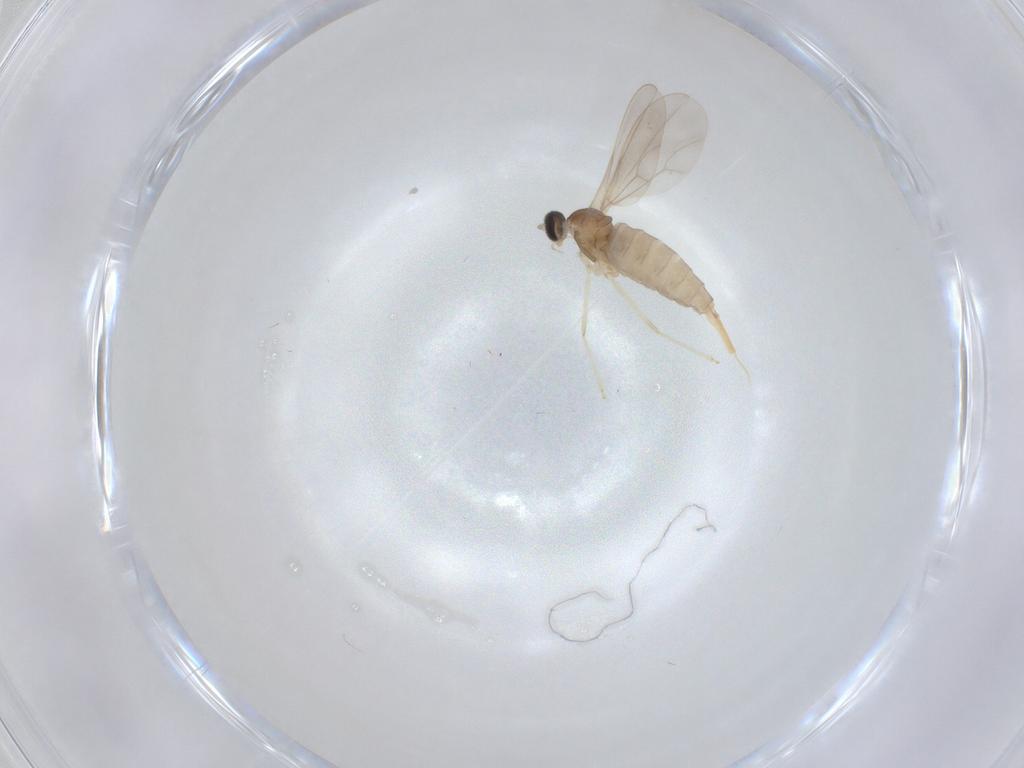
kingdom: Animalia
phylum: Arthropoda
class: Insecta
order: Diptera
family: Cecidomyiidae
